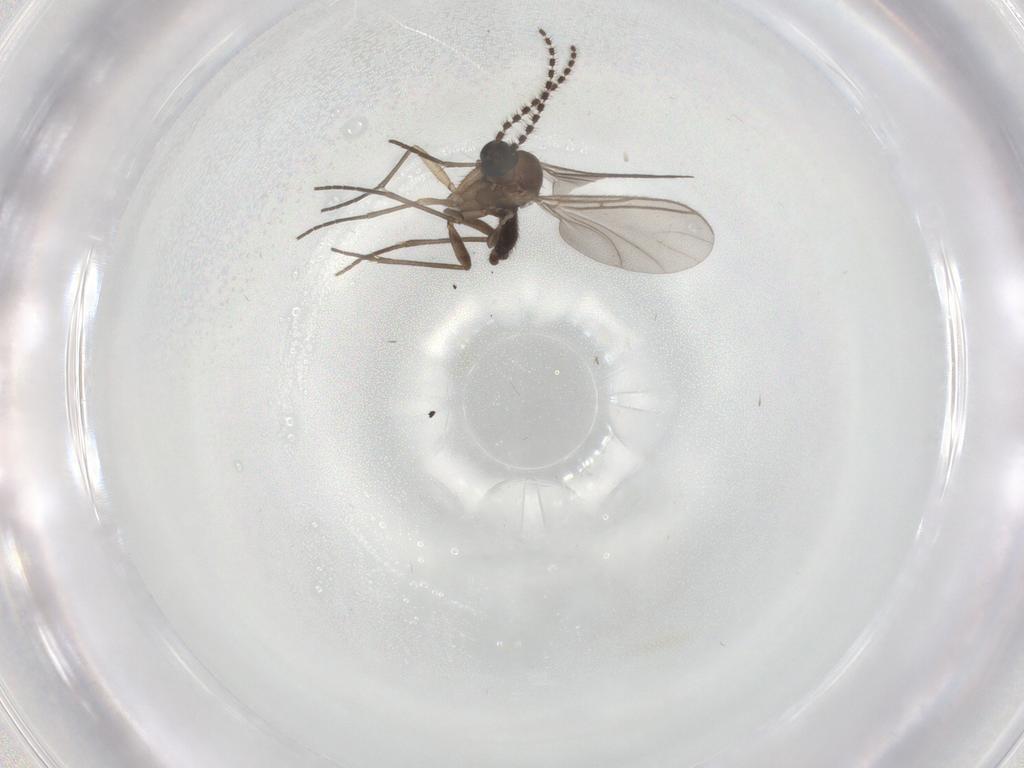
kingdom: Animalia
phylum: Arthropoda
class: Insecta
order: Diptera
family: Sciaridae
